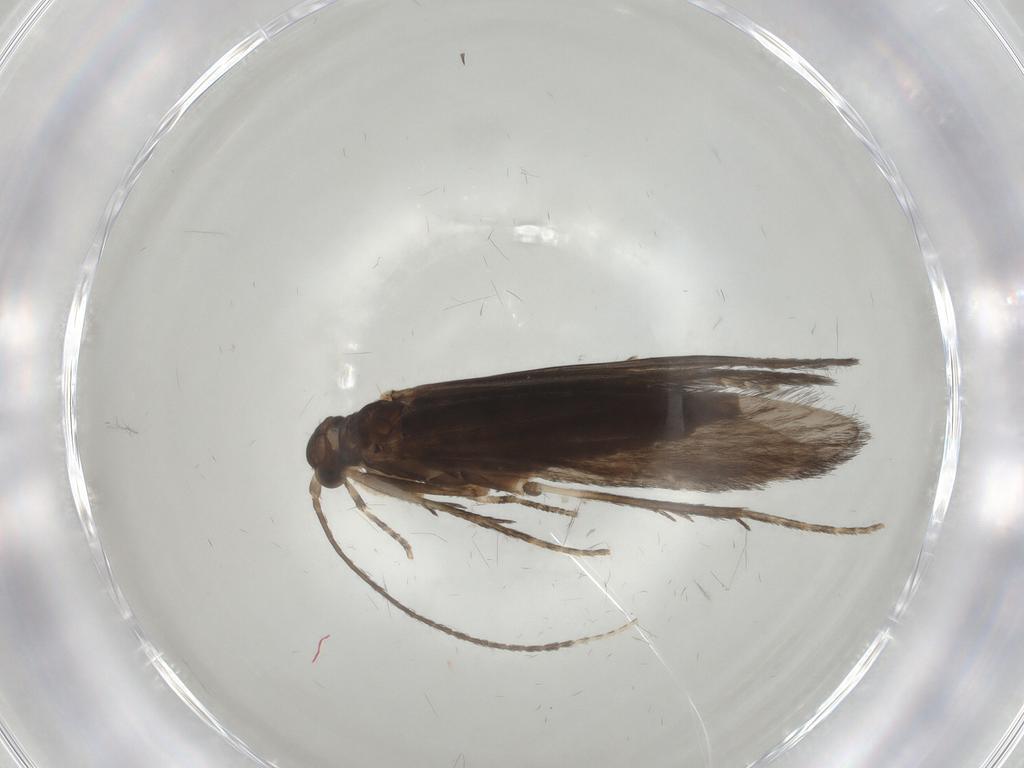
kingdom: Animalia
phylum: Arthropoda
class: Insecta
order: Trichoptera
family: Xiphocentronidae
